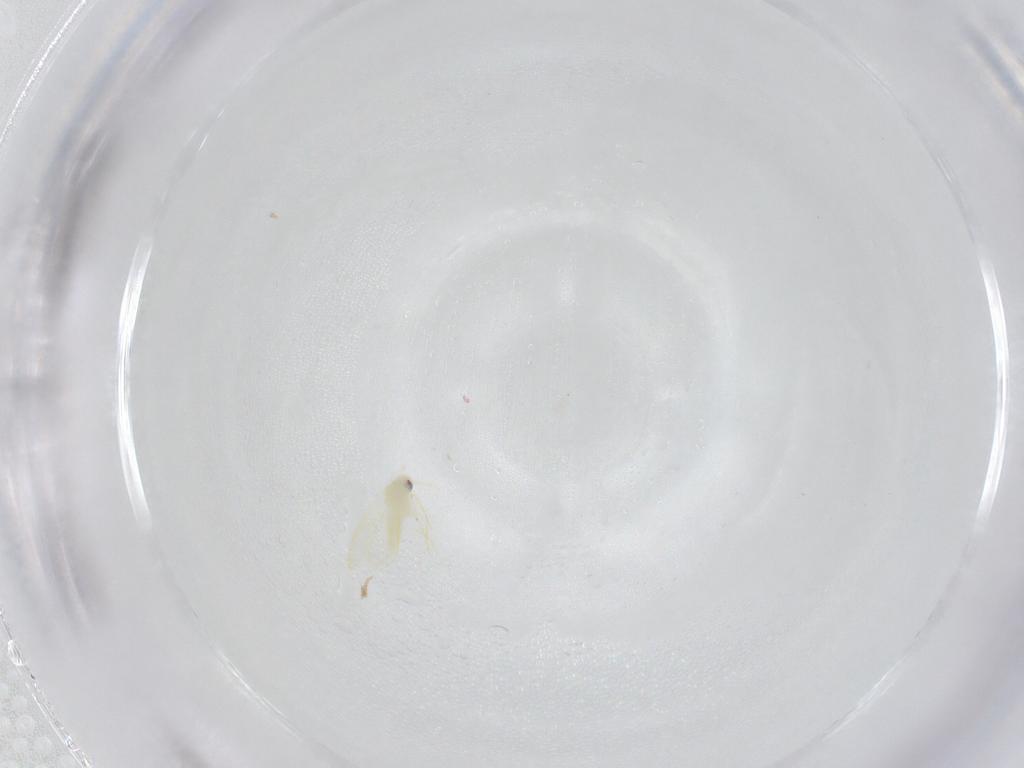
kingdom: Animalia
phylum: Arthropoda
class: Insecta
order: Hemiptera
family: Aleyrodidae
